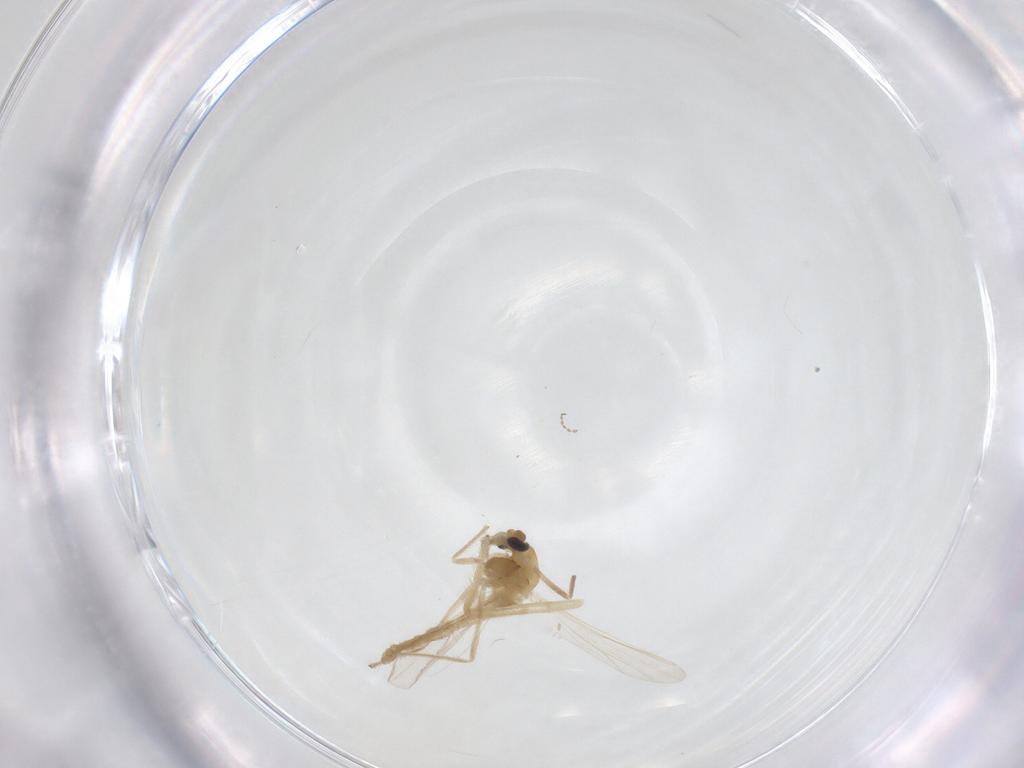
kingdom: Animalia
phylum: Arthropoda
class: Insecta
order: Diptera
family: Chironomidae
